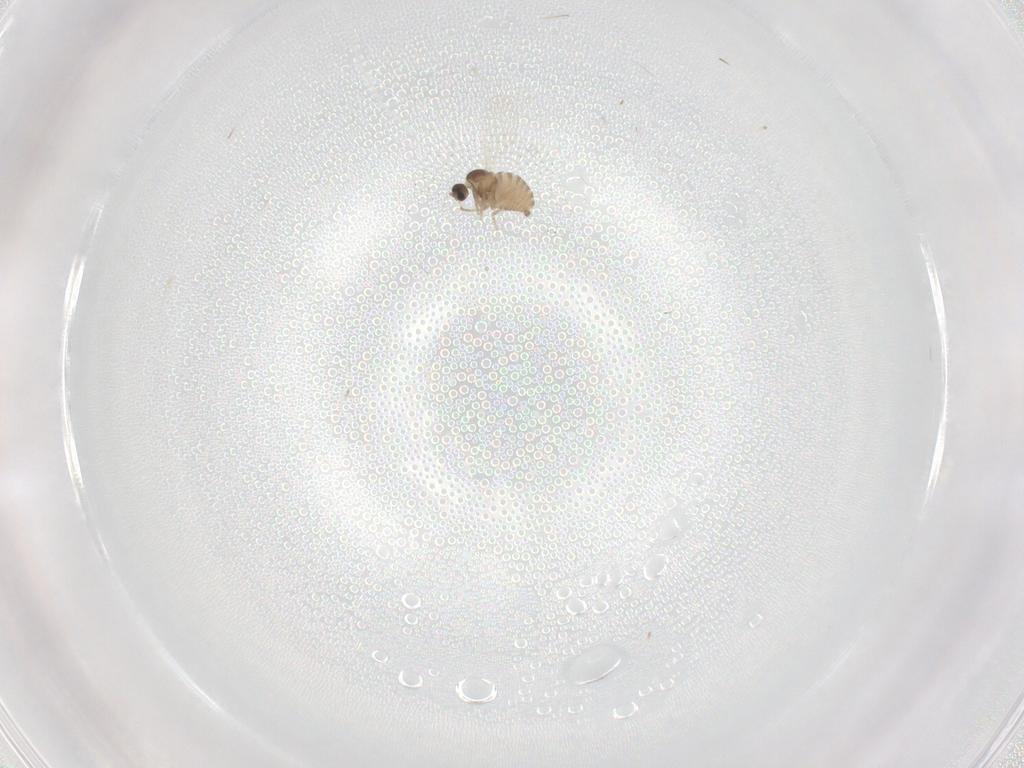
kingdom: Animalia
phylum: Arthropoda
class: Insecta
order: Diptera
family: Cecidomyiidae
